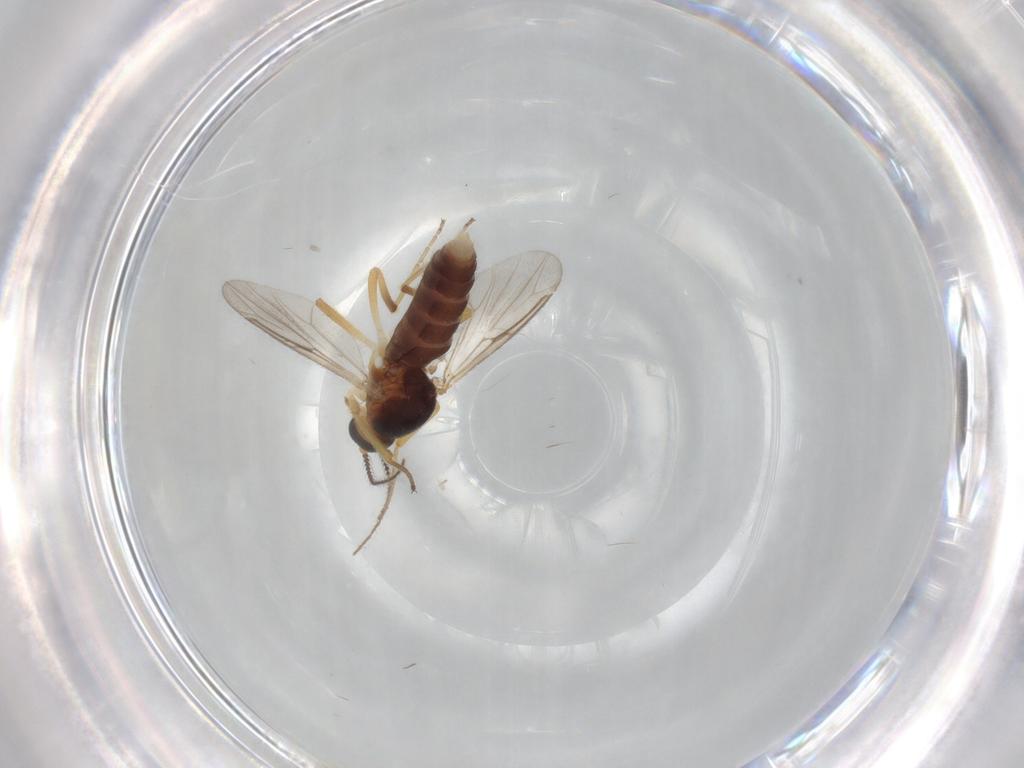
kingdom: Animalia
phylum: Arthropoda
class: Insecta
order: Diptera
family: Ceratopogonidae
